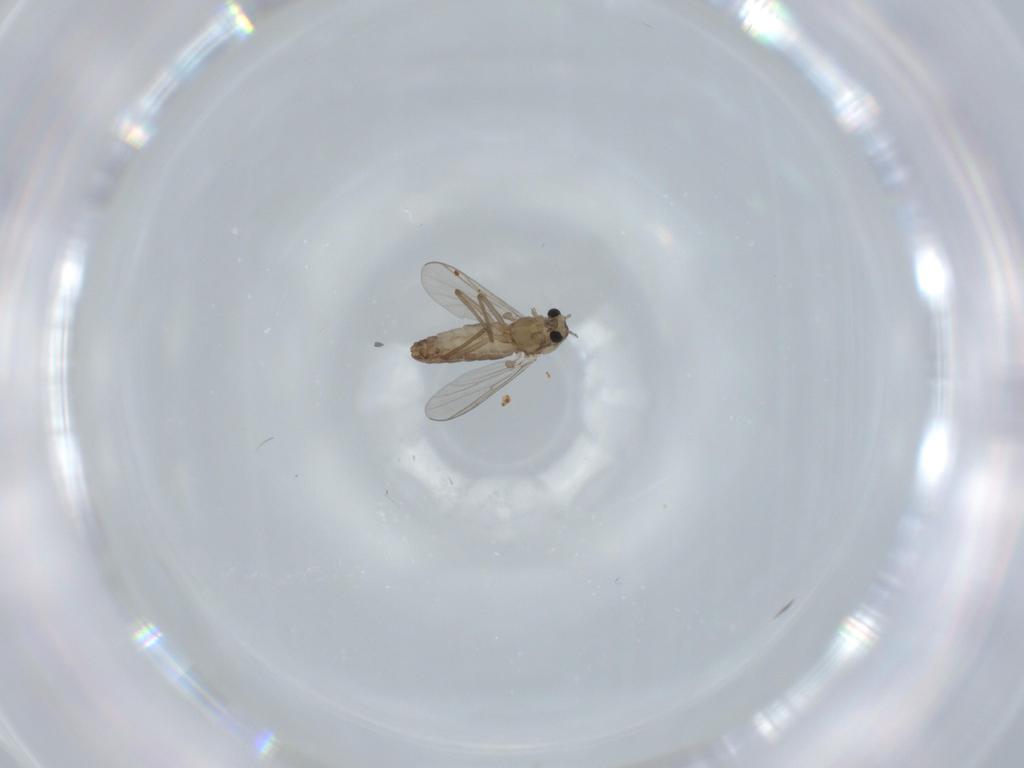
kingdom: Animalia
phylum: Arthropoda
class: Insecta
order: Diptera
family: Chironomidae
